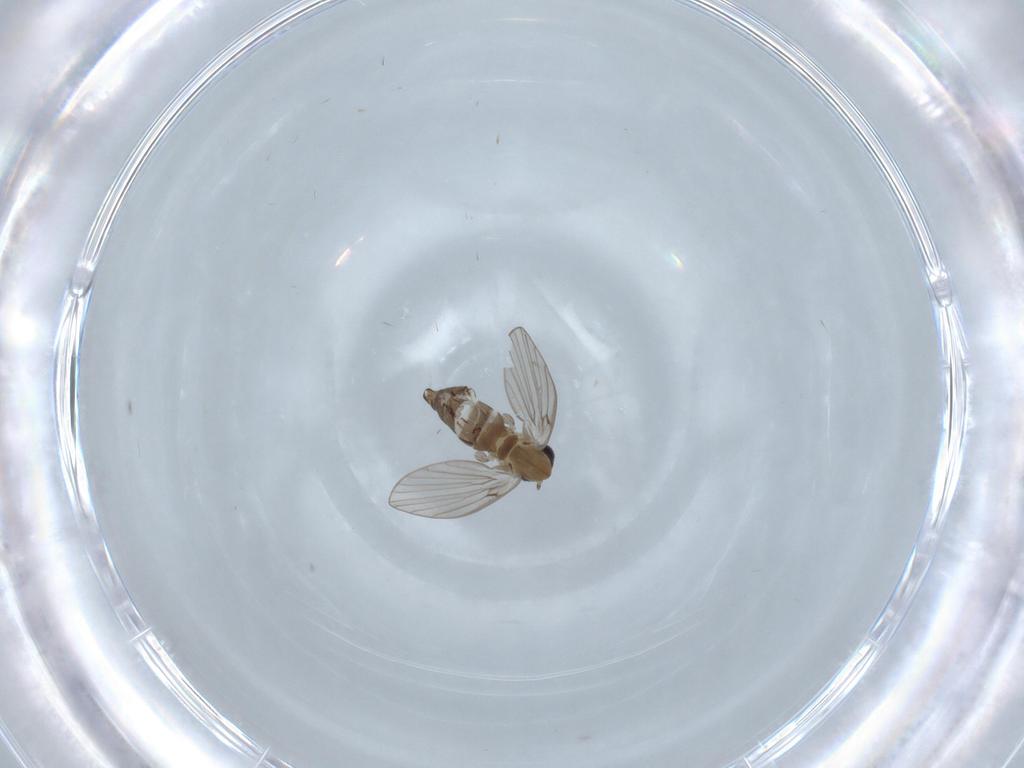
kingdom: Animalia
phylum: Arthropoda
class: Insecta
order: Diptera
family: Psychodidae
